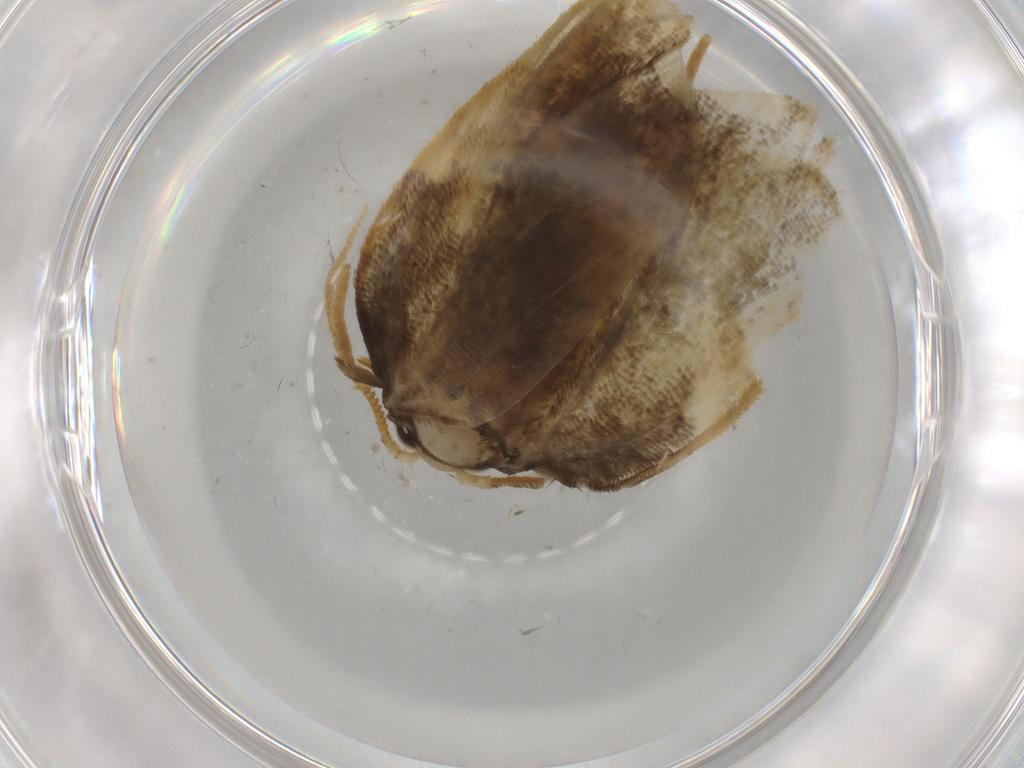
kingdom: Animalia
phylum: Arthropoda
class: Insecta
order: Lepidoptera
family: Psychidae
